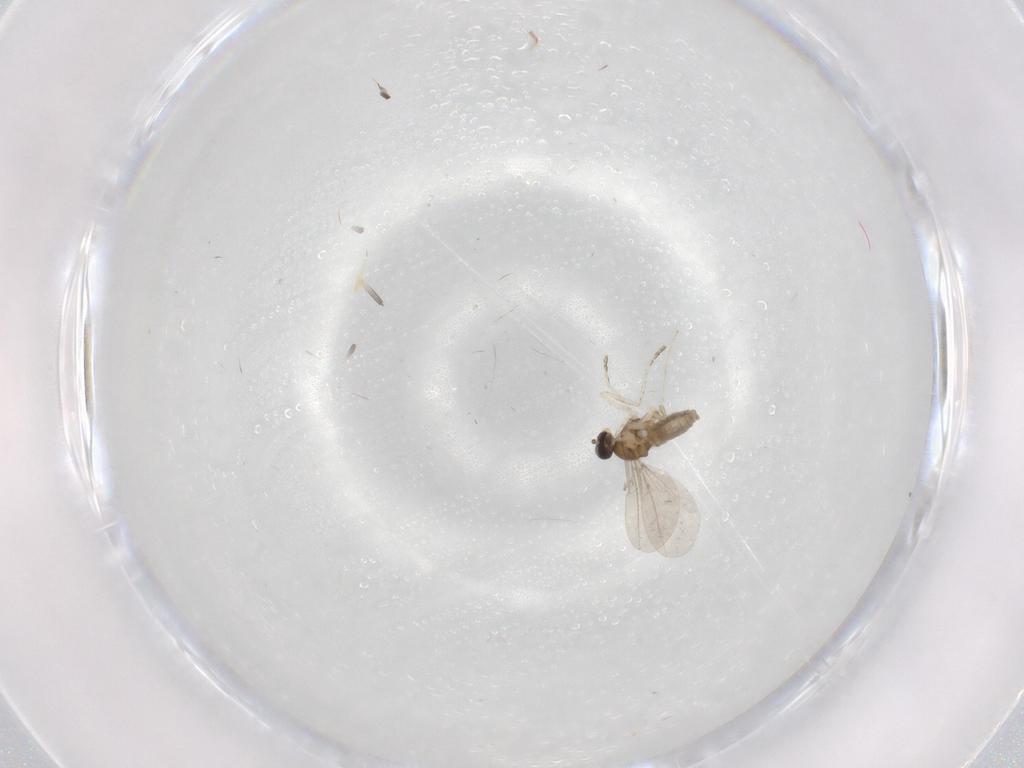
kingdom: Animalia
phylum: Arthropoda
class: Insecta
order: Diptera
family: Cecidomyiidae
